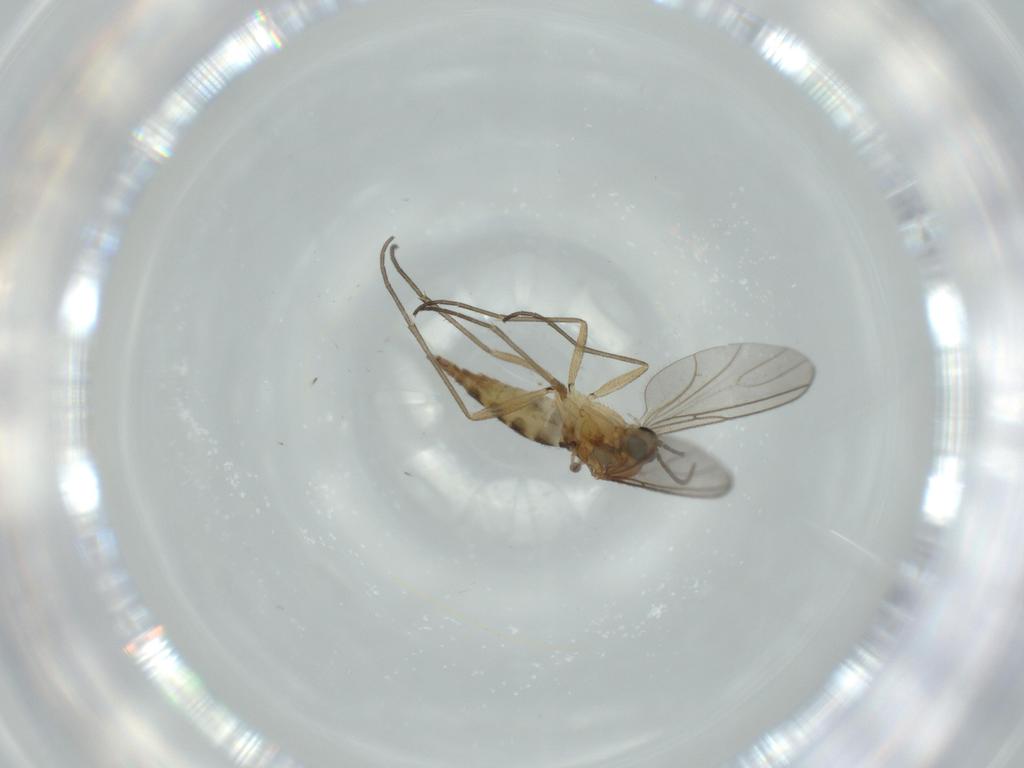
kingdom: Animalia
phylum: Arthropoda
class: Insecta
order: Diptera
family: Sphaeroceridae
